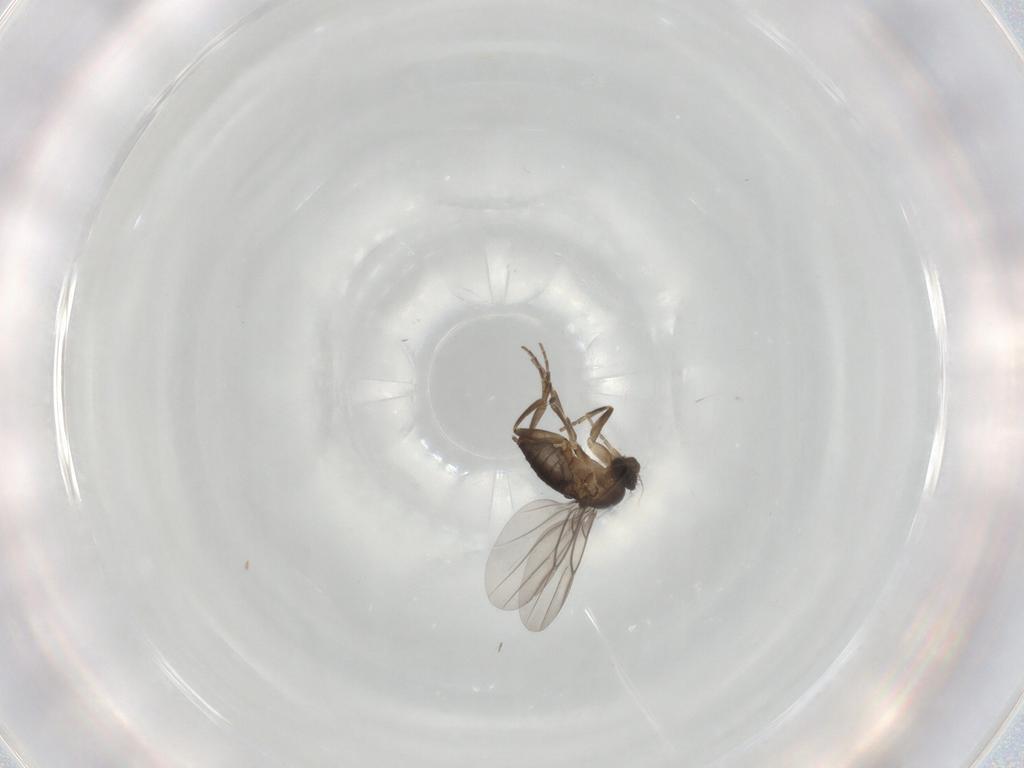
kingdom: Animalia
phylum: Arthropoda
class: Insecta
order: Diptera
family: Phoridae
